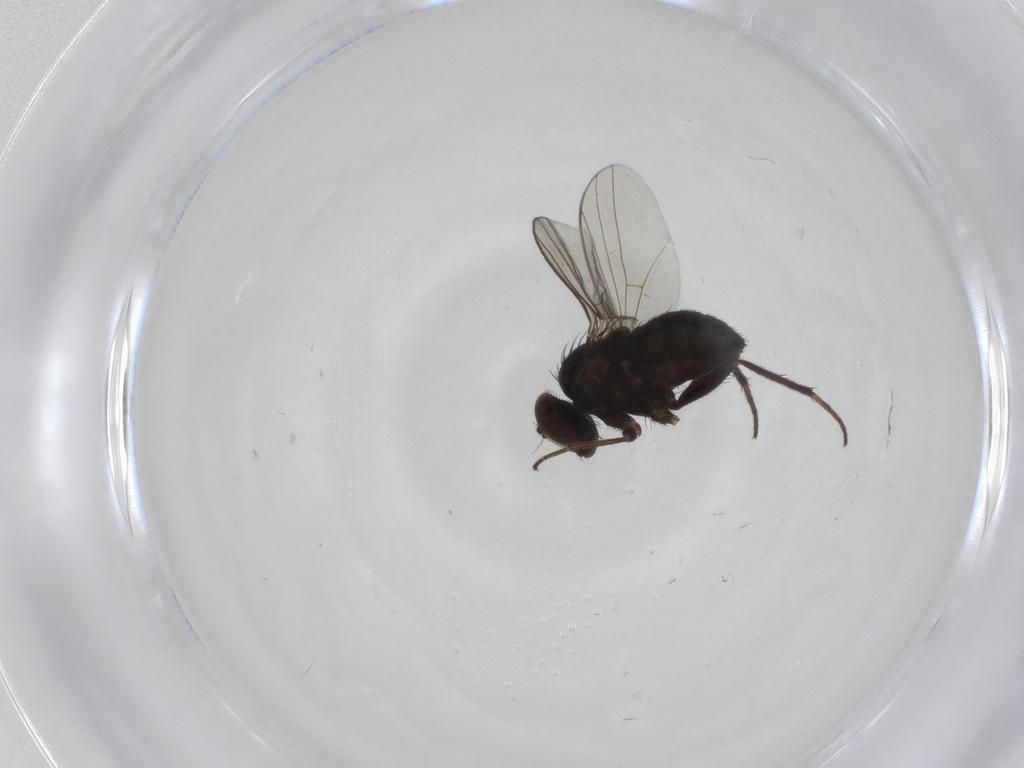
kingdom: Animalia
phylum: Arthropoda
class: Insecta
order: Diptera
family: Dolichopodidae
